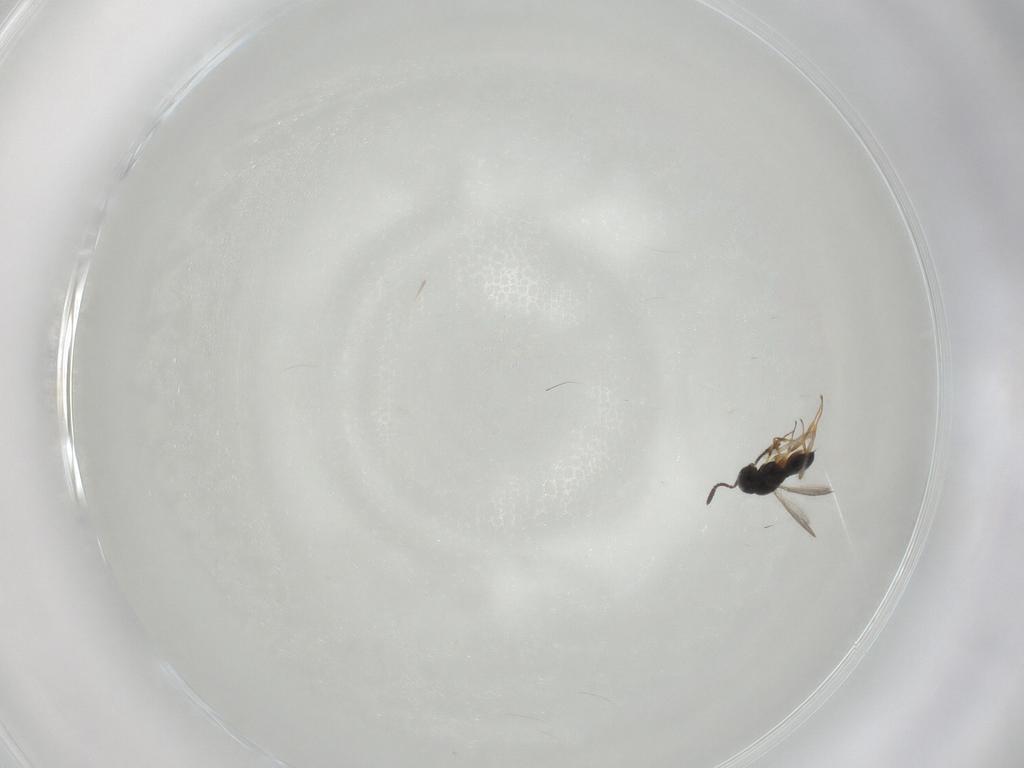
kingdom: Animalia
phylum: Arthropoda
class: Insecta
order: Hymenoptera
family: Scelionidae
